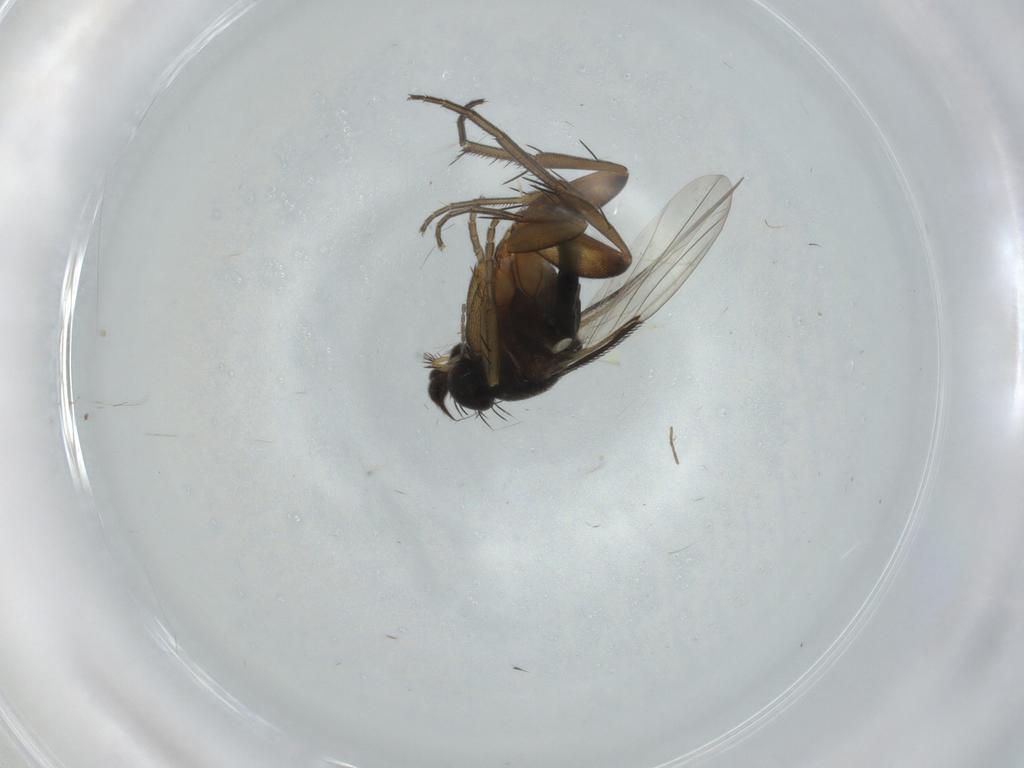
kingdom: Animalia
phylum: Arthropoda
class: Insecta
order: Diptera
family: Phoridae
